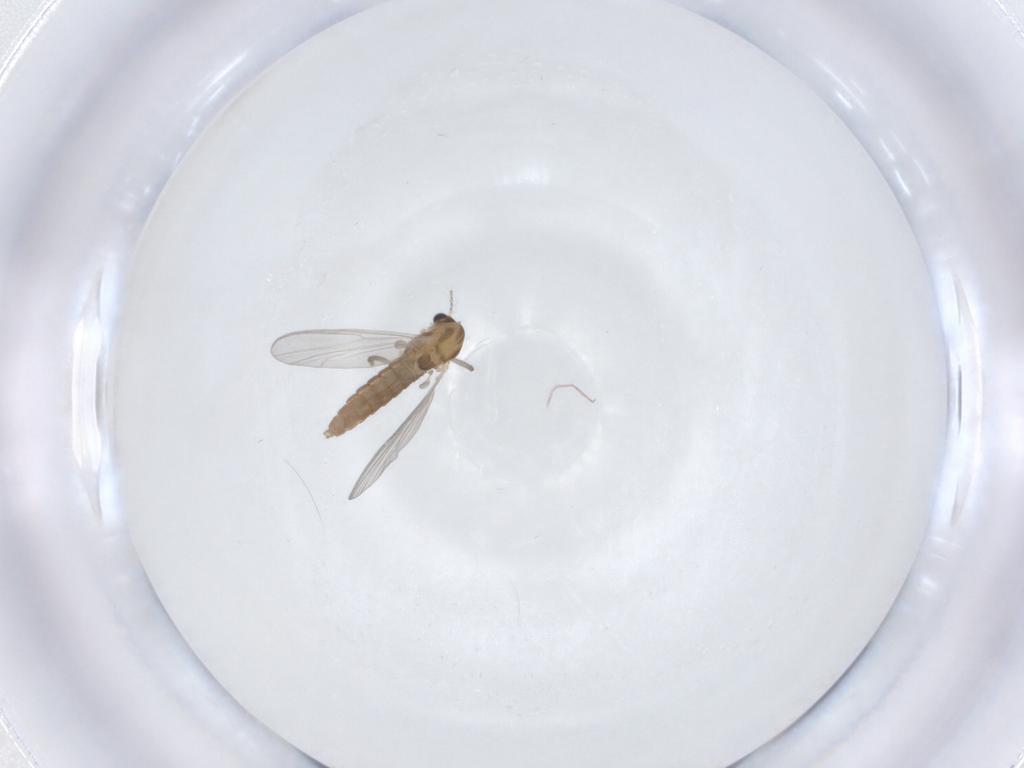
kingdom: Animalia
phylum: Arthropoda
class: Insecta
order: Diptera
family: Chironomidae
